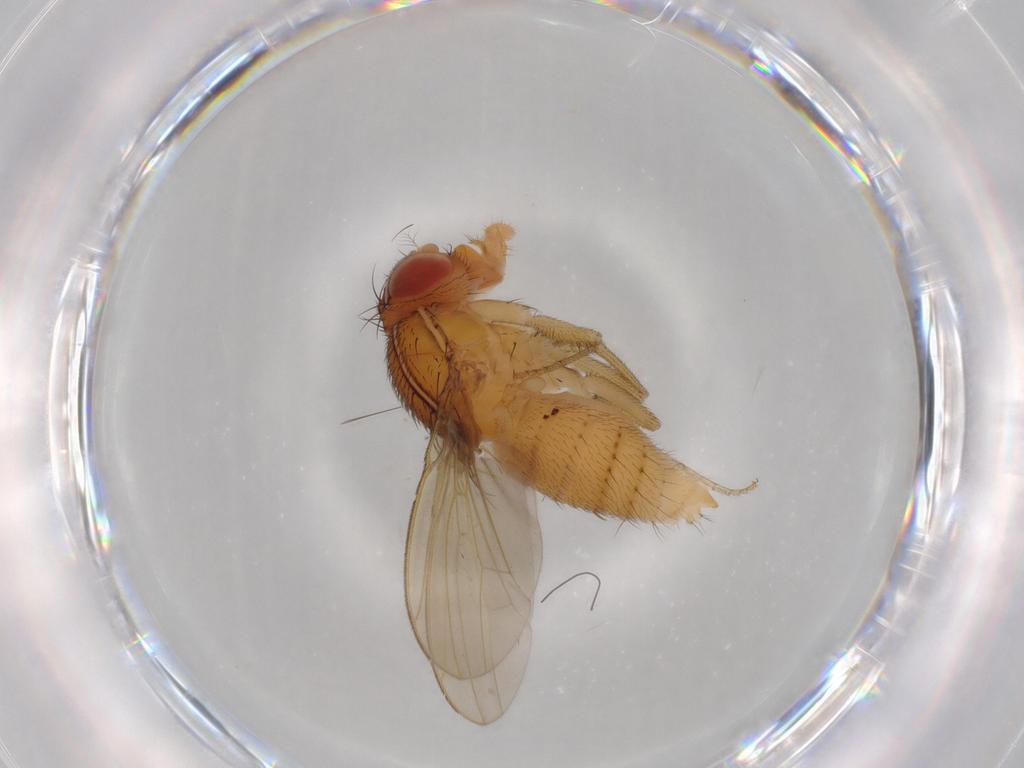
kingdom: Animalia
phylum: Arthropoda
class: Insecta
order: Diptera
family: Drosophilidae
